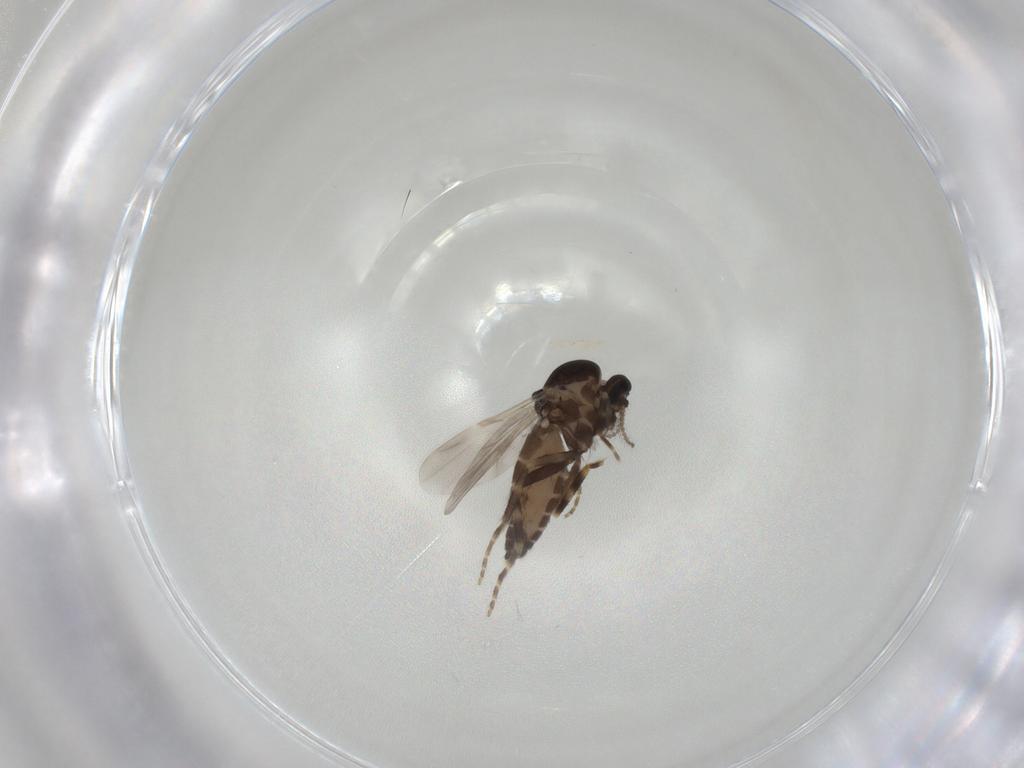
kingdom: Animalia
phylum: Arthropoda
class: Insecta
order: Diptera
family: Ceratopogonidae
